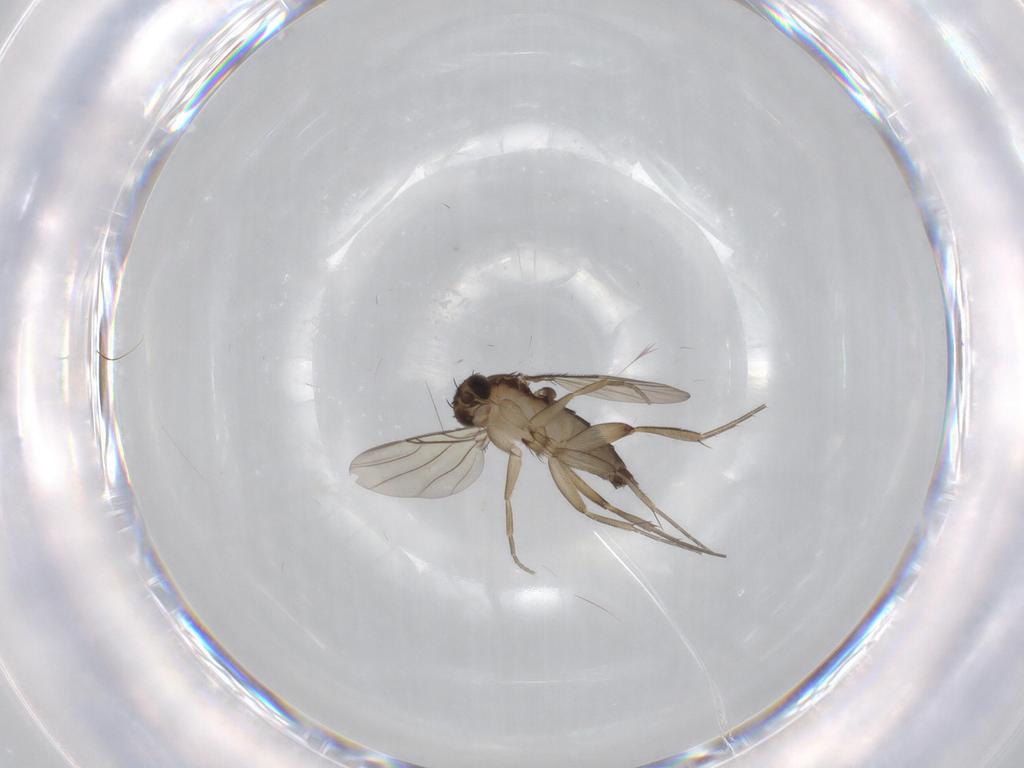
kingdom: Animalia
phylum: Arthropoda
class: Insecta
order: Diptera
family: Phoridae
